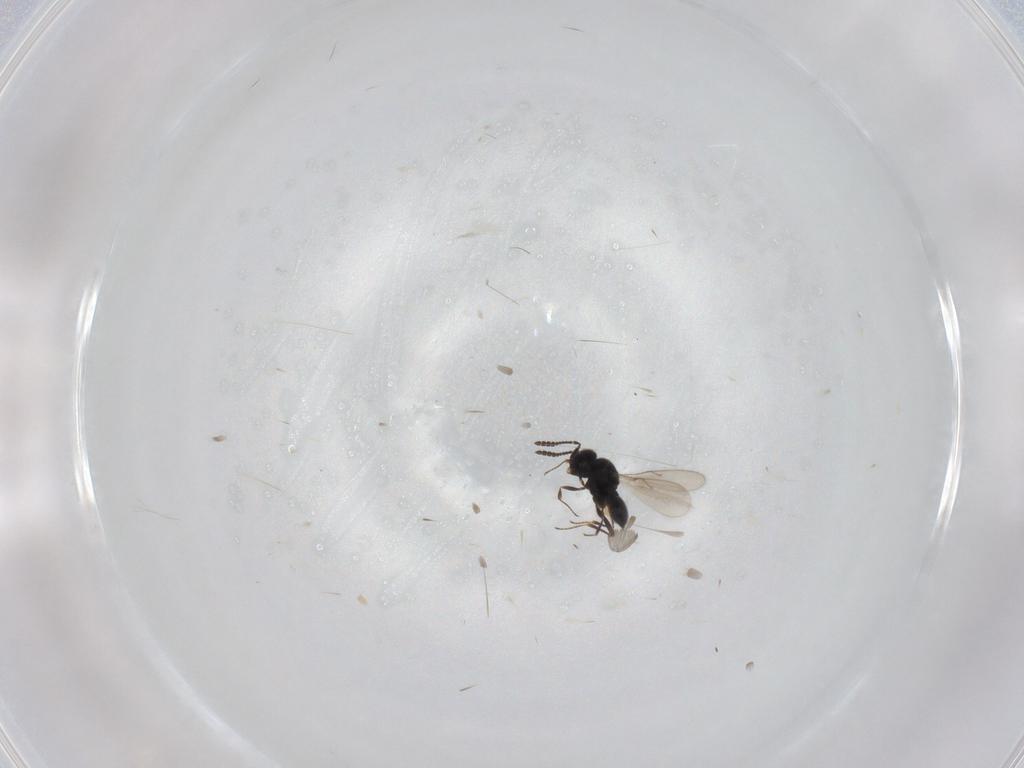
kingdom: Animalia
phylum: Arthropoda
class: Insecta
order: Hymenoptera
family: Scelionidae
